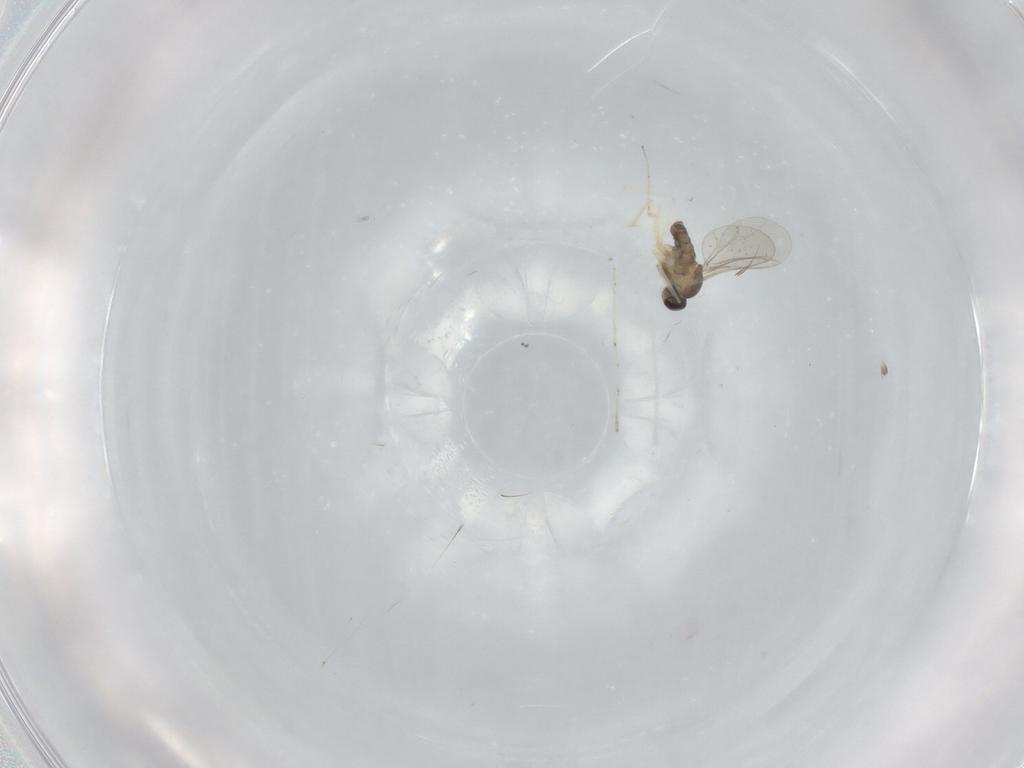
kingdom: Animalia
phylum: Arthropoda
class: Insecta
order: Diptera
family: Cecidomyiidae
